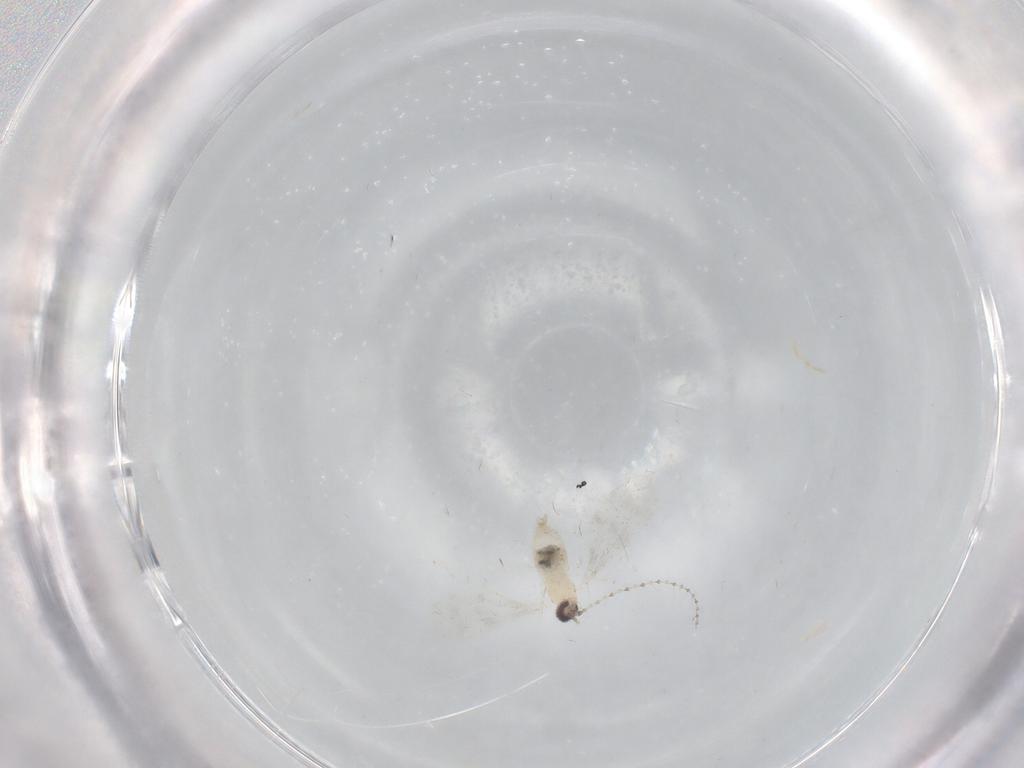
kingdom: Animalia
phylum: Arthropoda
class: Insecta
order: Diptera
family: Cecidomyiidae
